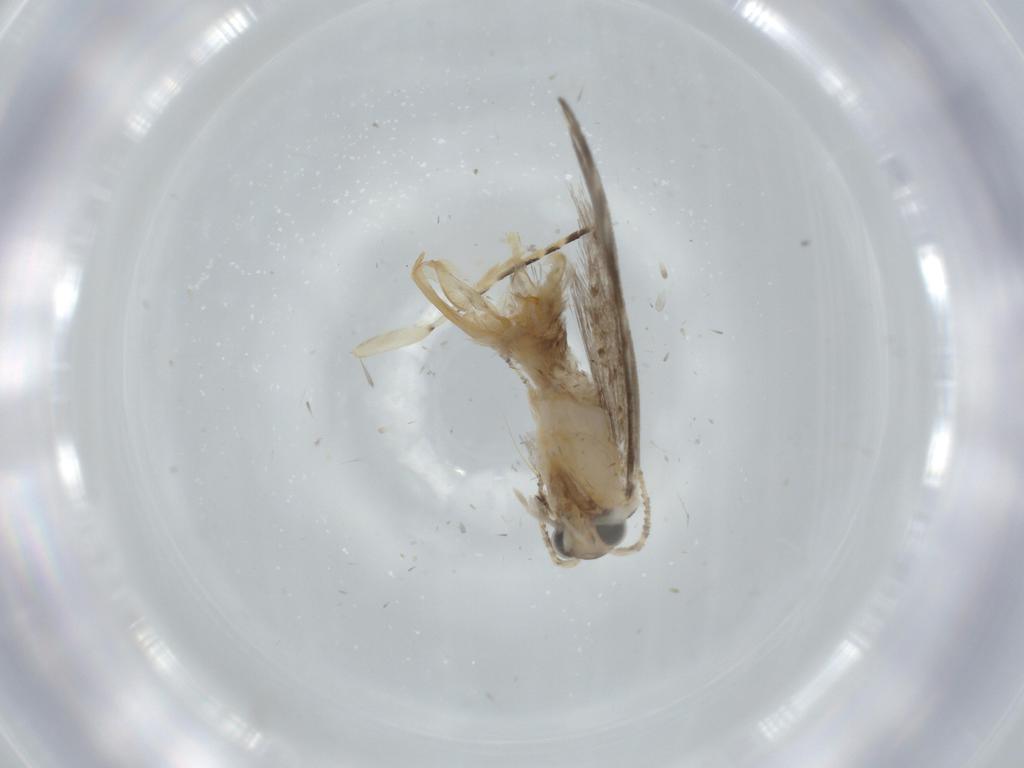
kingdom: Animalia
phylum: Arthropoda
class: Insecta
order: Lepidoptera
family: Tineidae
